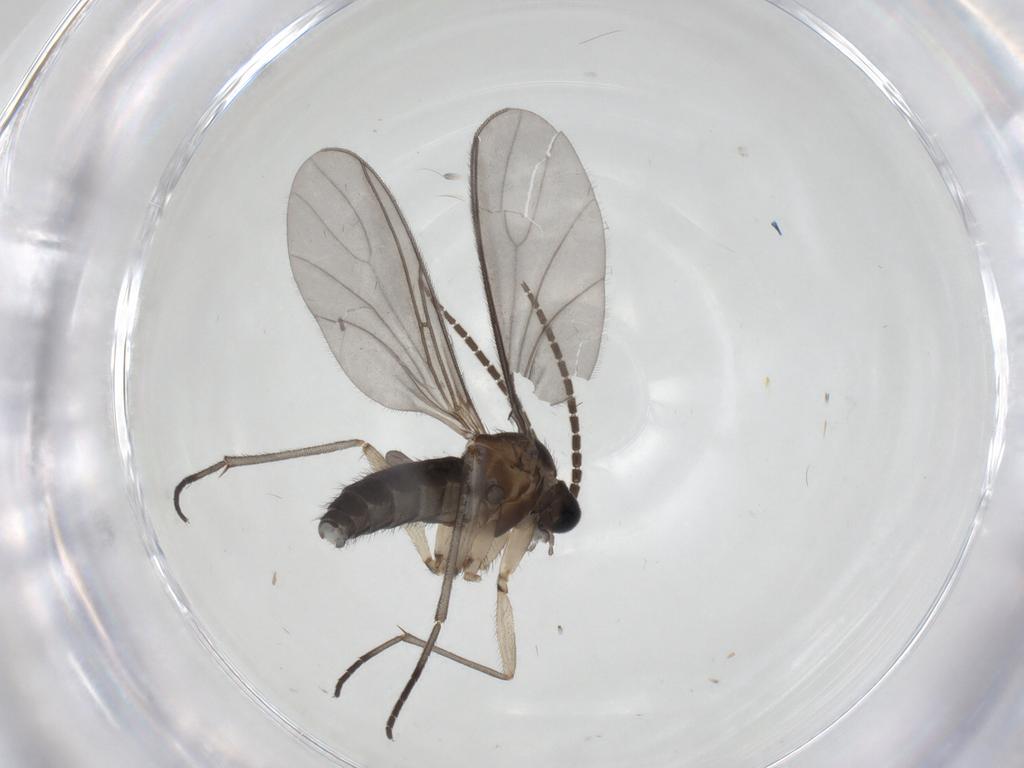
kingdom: Animalia
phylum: Arthropoda
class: Insecta
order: Diptera
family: Sciaridae
